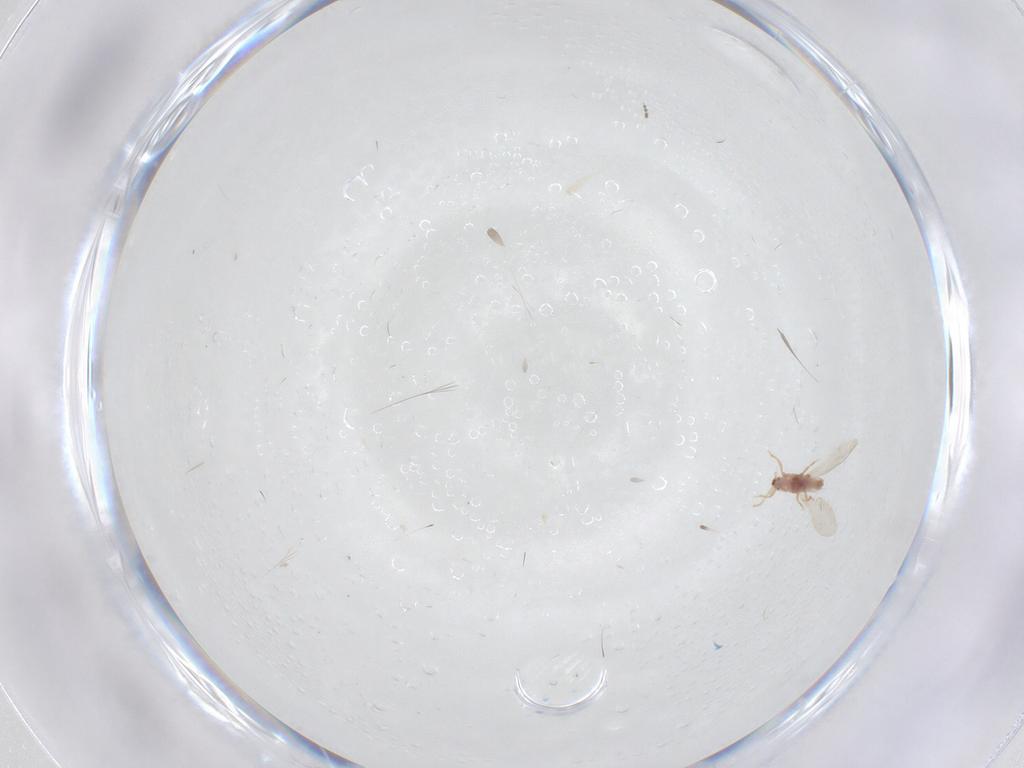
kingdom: Animalia
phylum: Arthropoda
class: Insecta
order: Diptera
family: Cecidomyiidae
